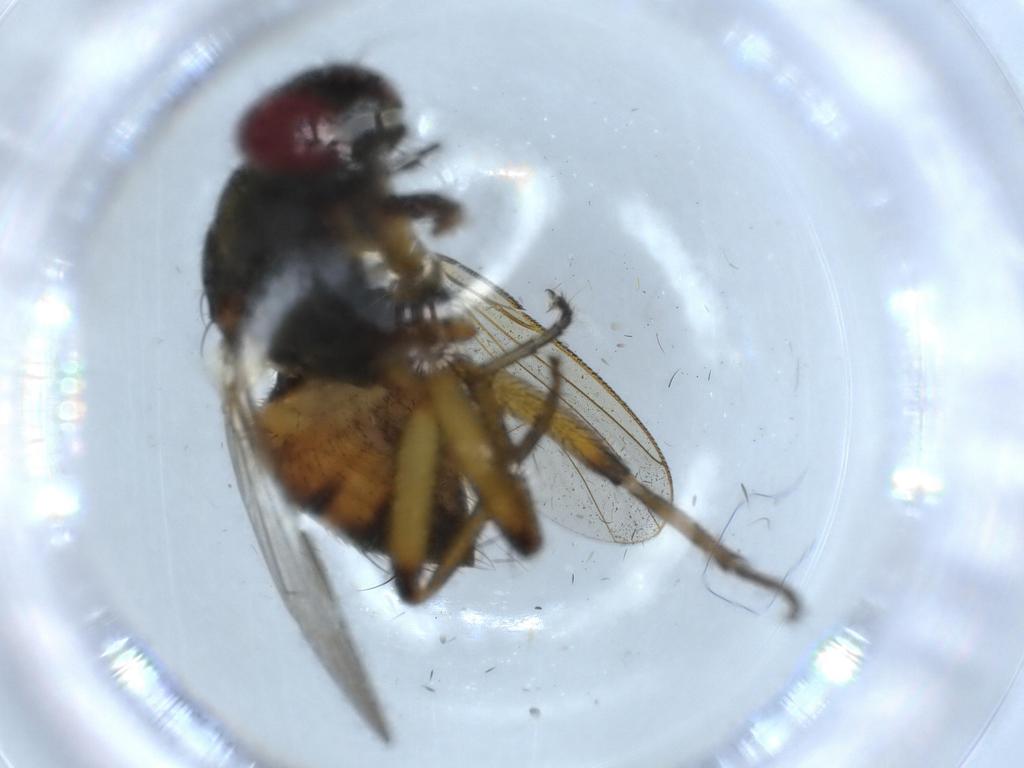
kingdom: Animalia
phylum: Arthropoda
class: Insecta
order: Diptera
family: Muscidae
